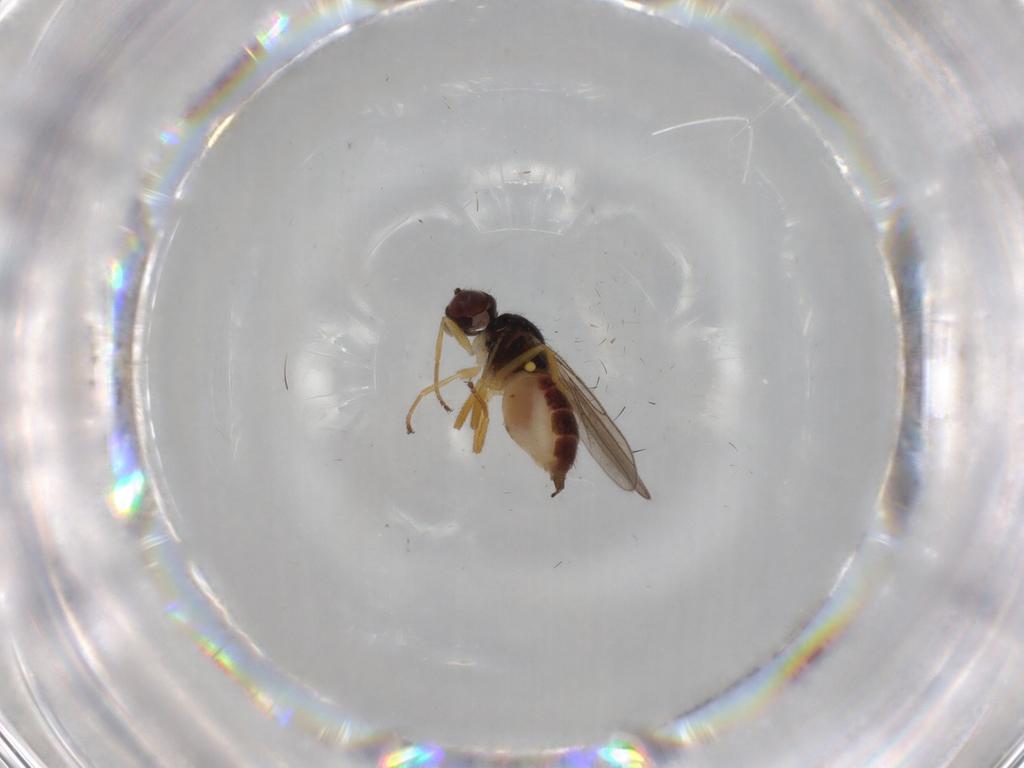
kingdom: Animalia
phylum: Arthropoda
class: Insecta
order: Diptera
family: Chloropidae
